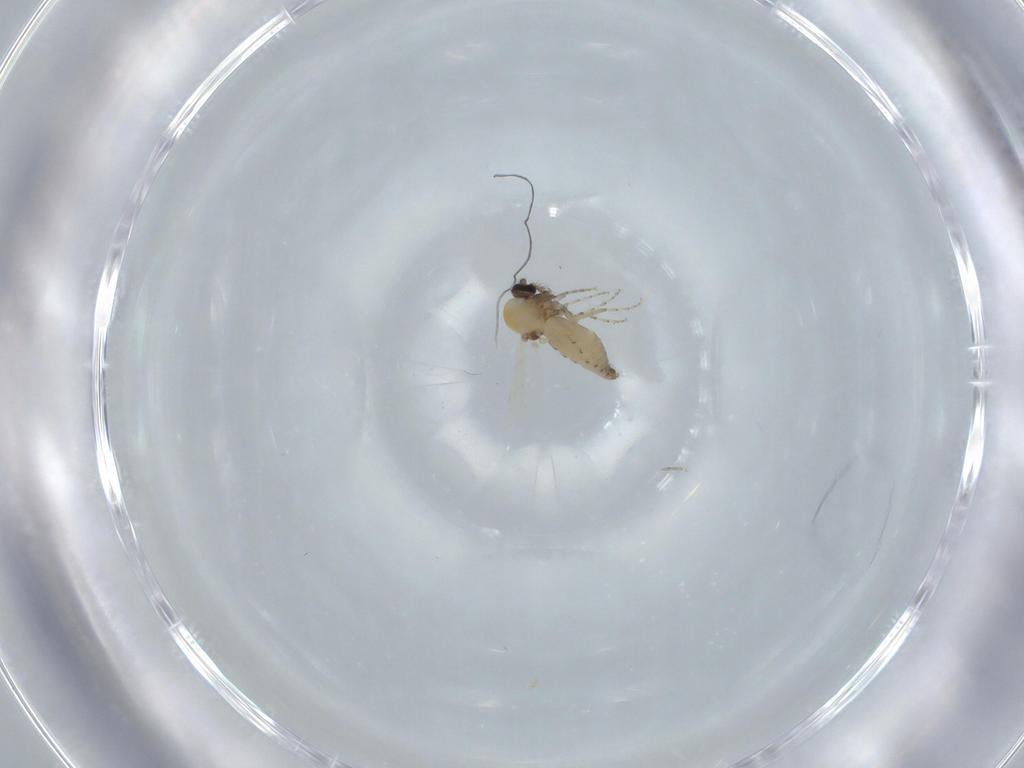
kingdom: Animalia
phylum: Arthropoda
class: Insecta
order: Diptera
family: Ceratopogonidae
